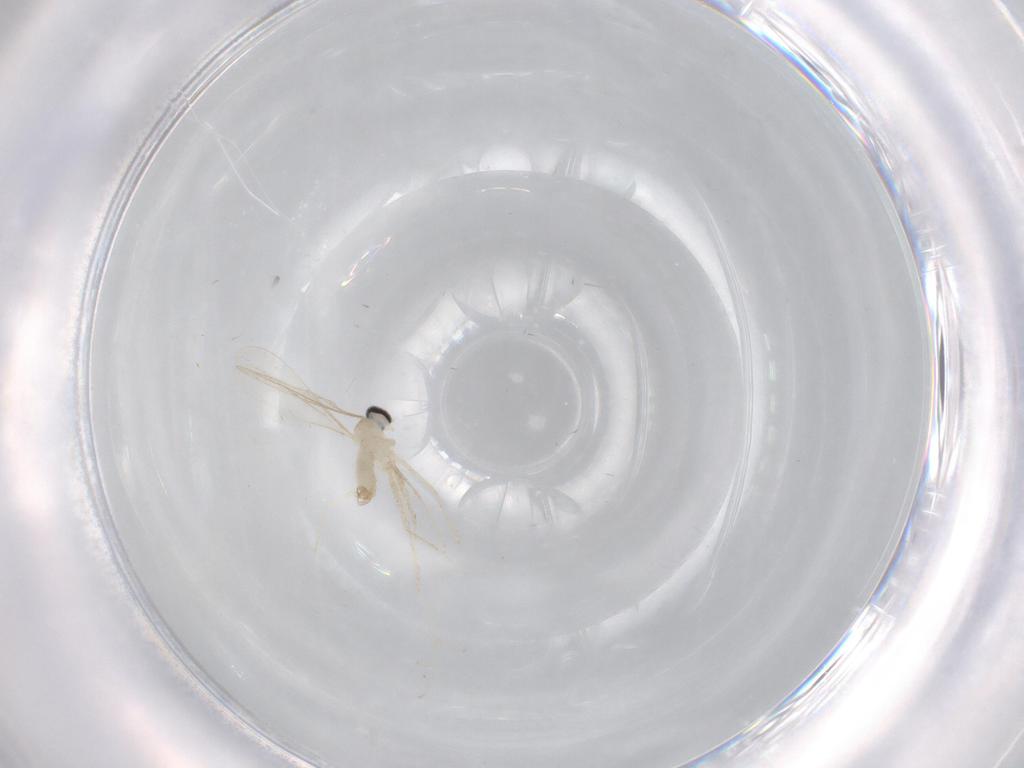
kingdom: Animalia
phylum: Arthropoda
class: Insecta
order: Diptera
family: Cecidomyiidae
